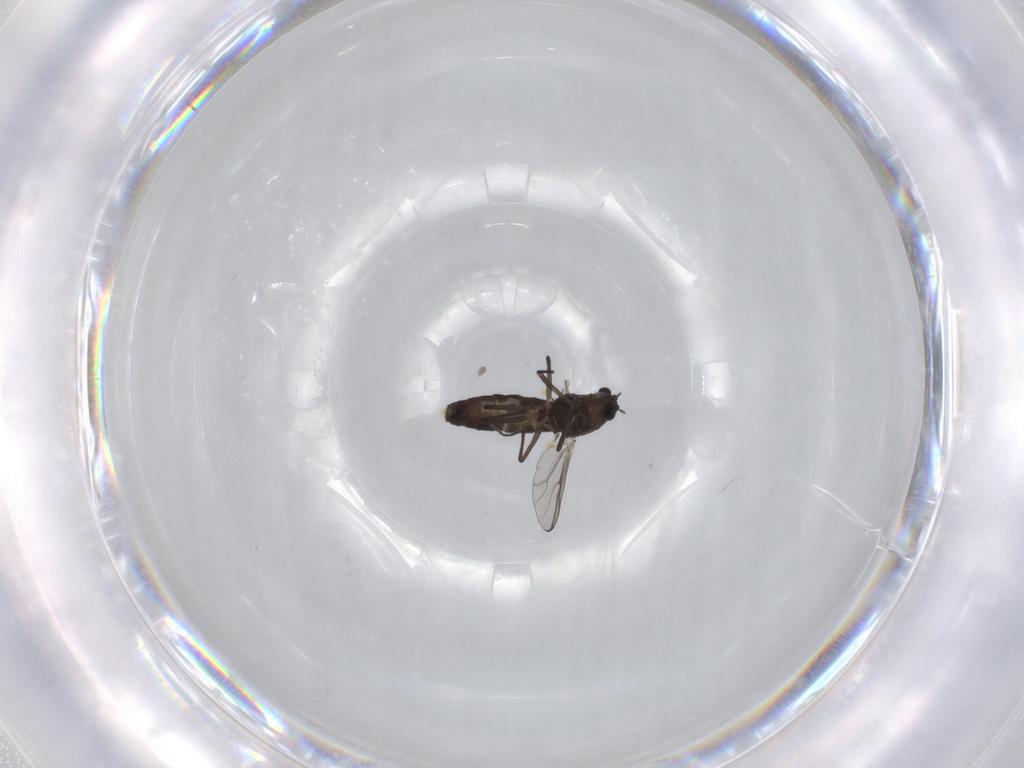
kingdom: Animalia
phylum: Arthropoda
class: Insecta
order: Diptera
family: Chironomidae
